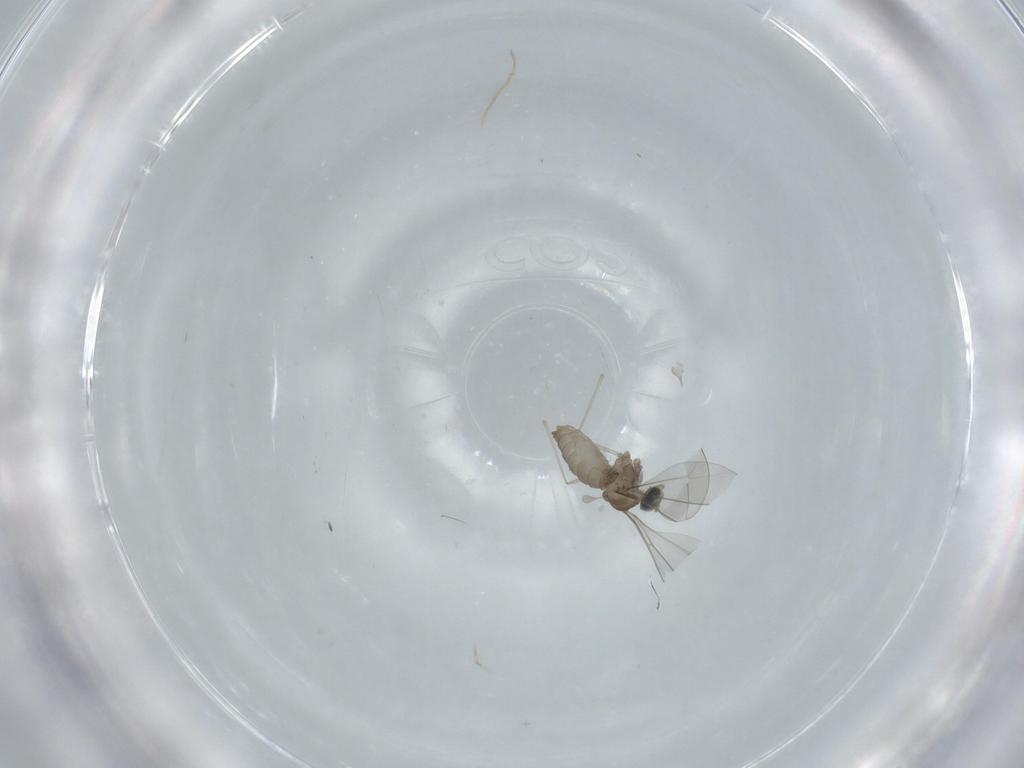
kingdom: Animalia
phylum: Arthropoda
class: Insecta
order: Diptera
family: Cecidomyiidae
